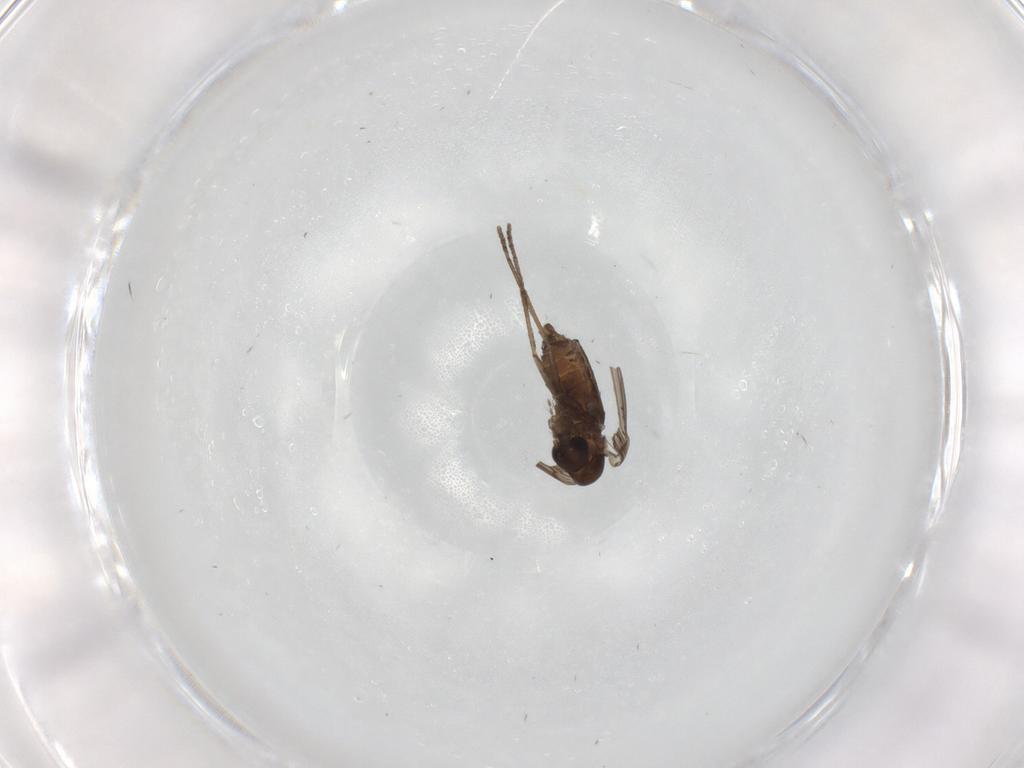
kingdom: Animalia
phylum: Arthropoda
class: Insecta
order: Diptera
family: Psychodidae
